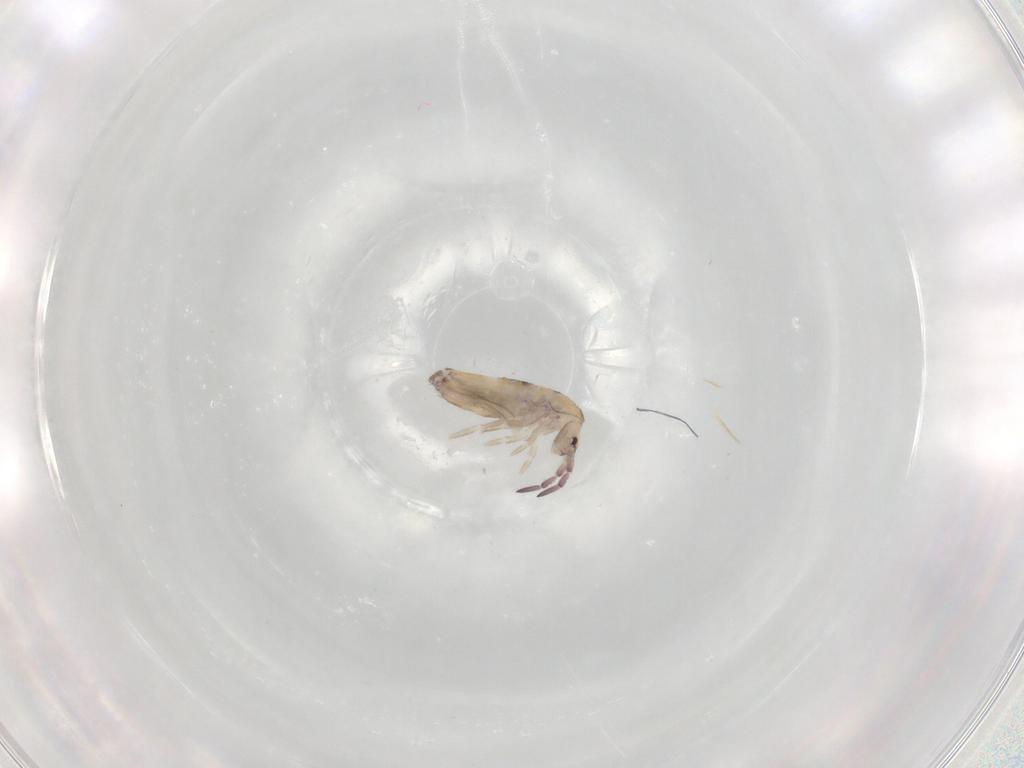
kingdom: Animalia
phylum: Arthropoda
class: Collembola
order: Entomobryomorpha
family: Entomobryidae
